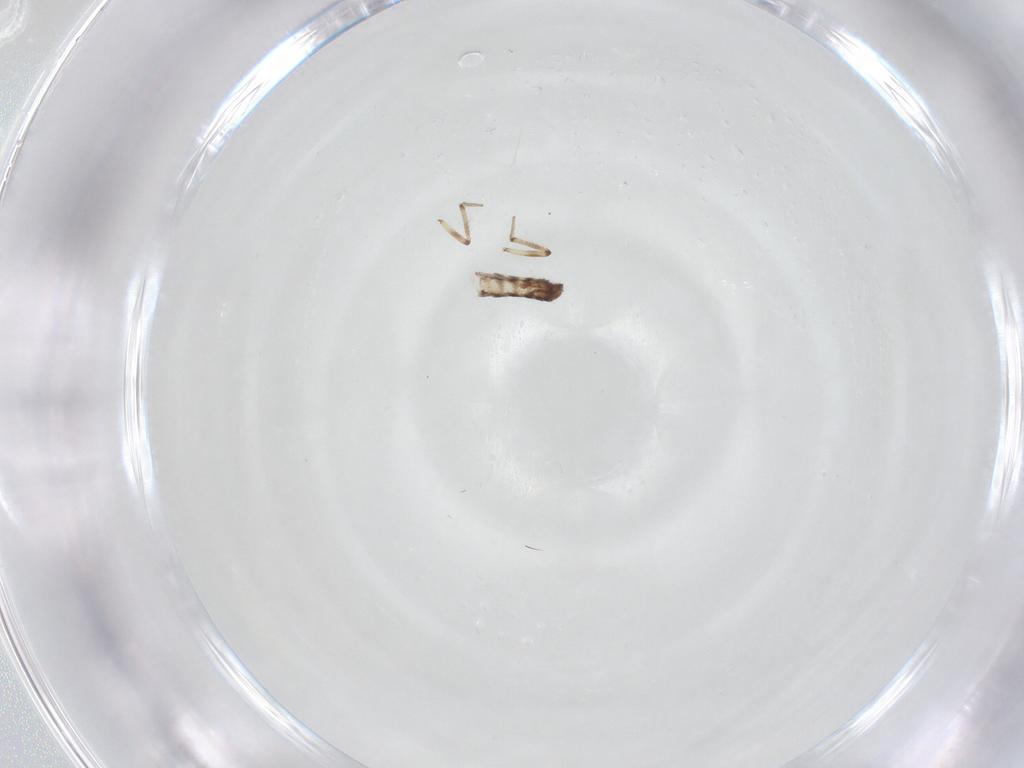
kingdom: Animalia
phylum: Arthropoda
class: Insecta
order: Diptera
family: Ceratopogonidae
